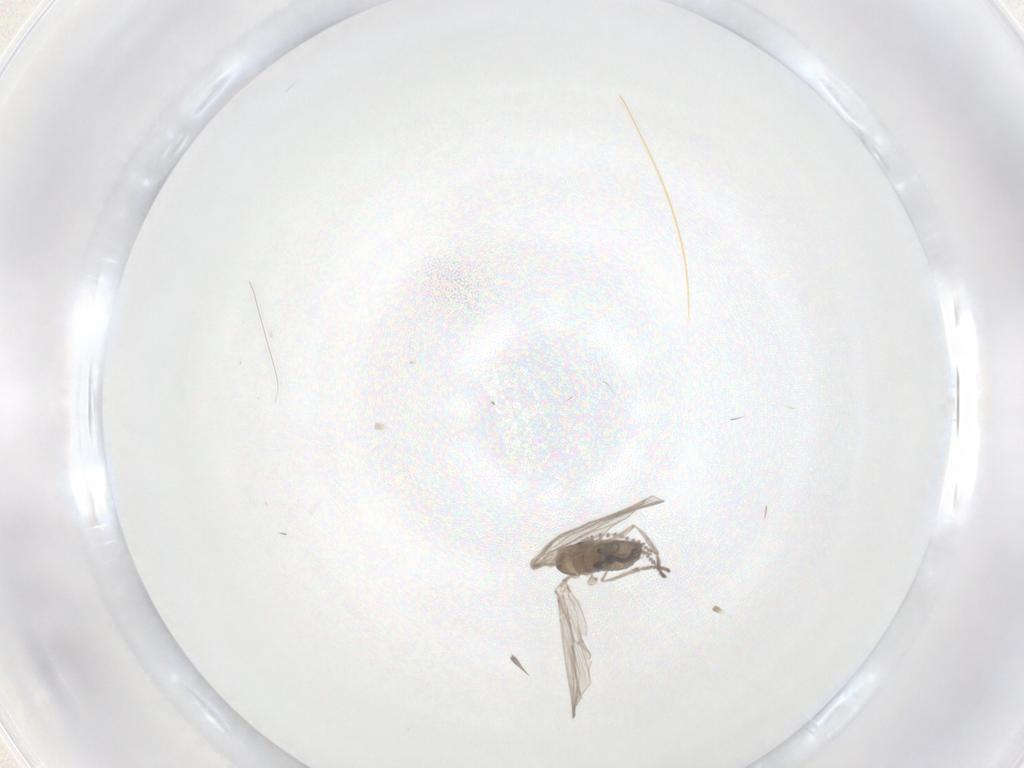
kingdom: Animalia
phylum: Arthropoda
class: Insecta
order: Diptera
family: Psychodidae
